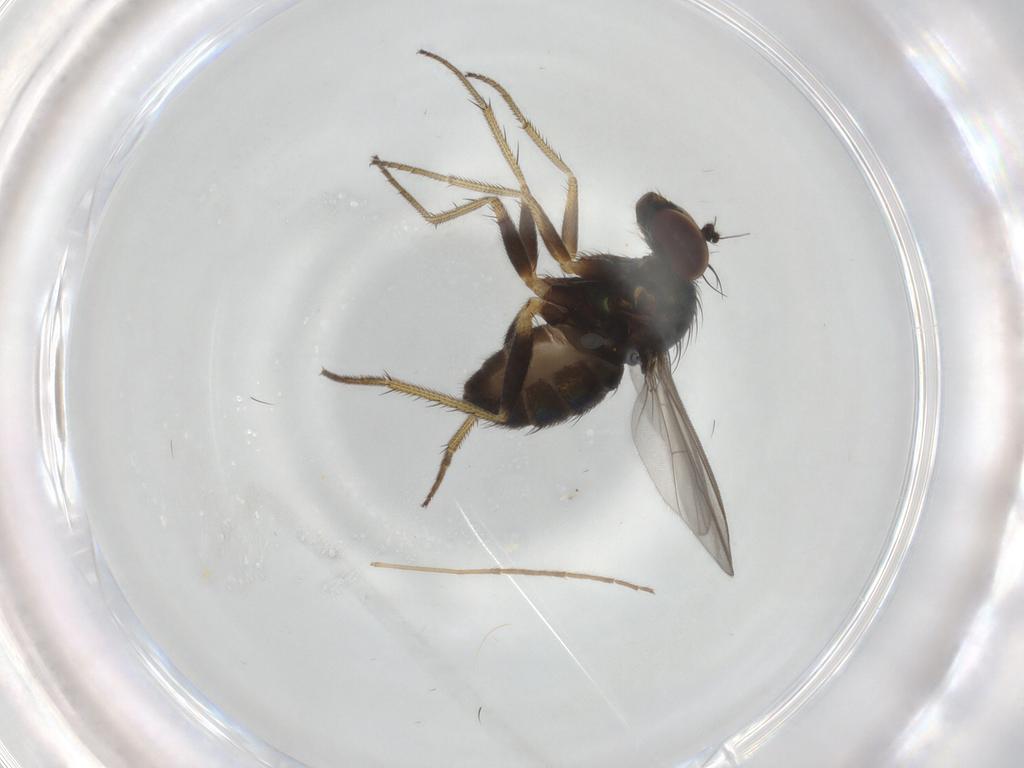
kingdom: Animalia
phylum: Arthropoda
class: Insecta
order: Diptera
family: Chironomidae
